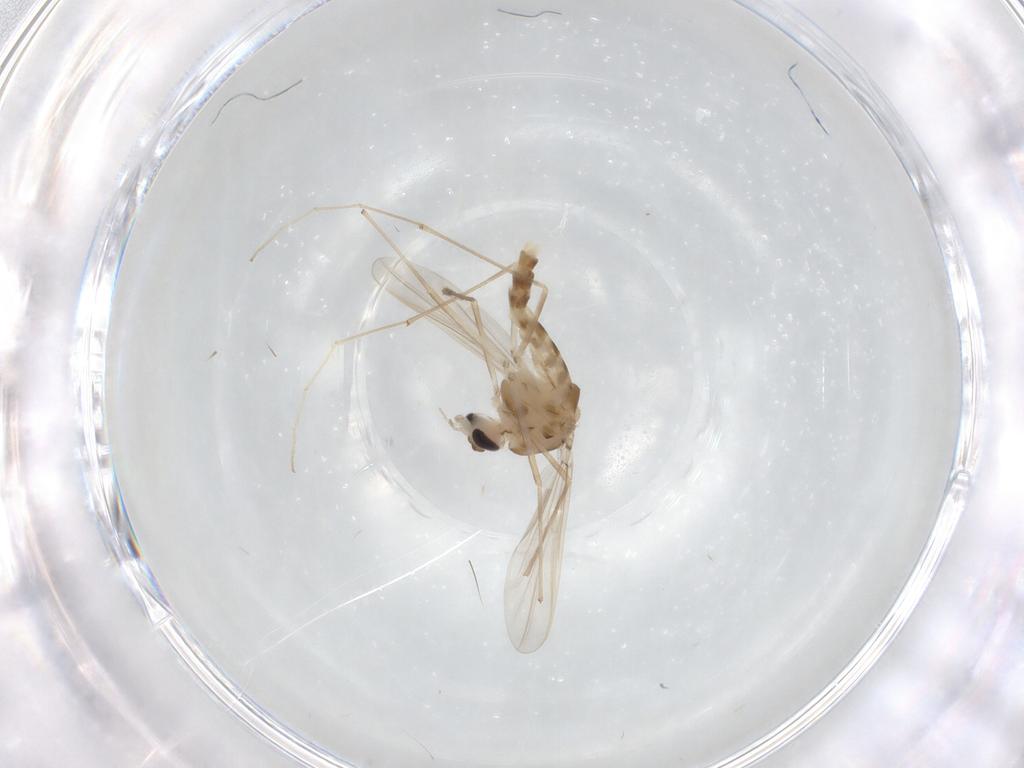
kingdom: Animalia
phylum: Arthropoda
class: Insecta
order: Diptera
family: Chironomidae
